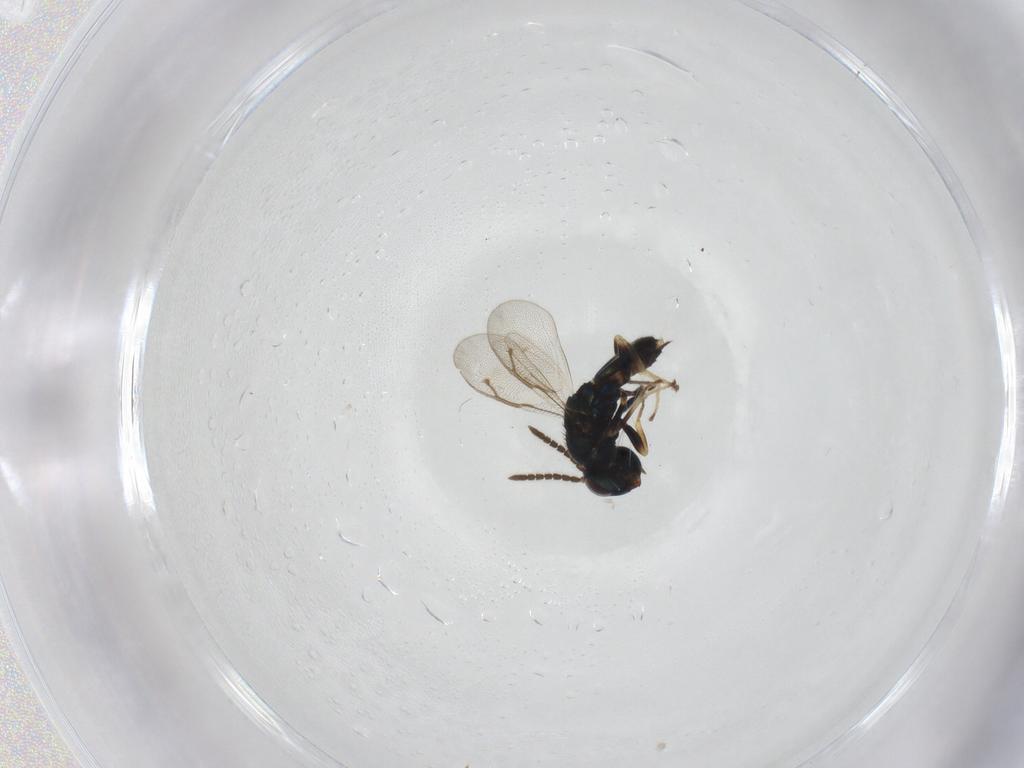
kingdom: Animalia
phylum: Arthropoda
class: Insecta
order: Hymenoptera
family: Pteromalidae
